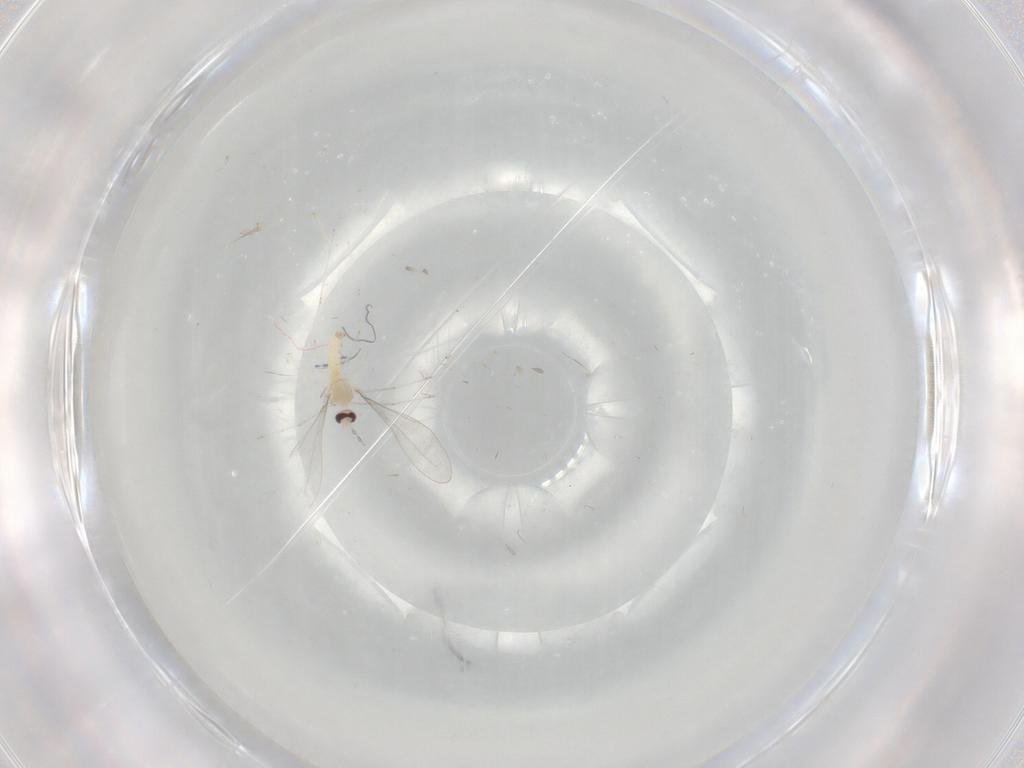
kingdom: Animalia
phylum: Arthropoda
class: Insecta
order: Diptera
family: Cecidomyiidae
